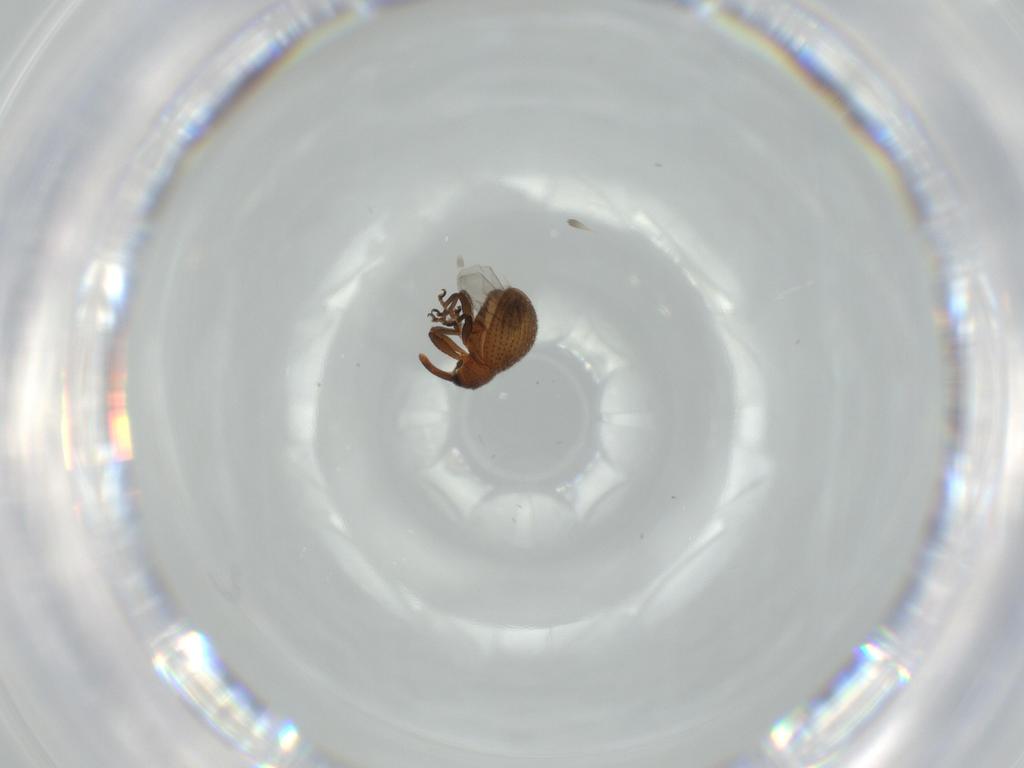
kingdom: Animalia
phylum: Arthropoda
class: Insecta
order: Coleoptera
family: Curculionidae
